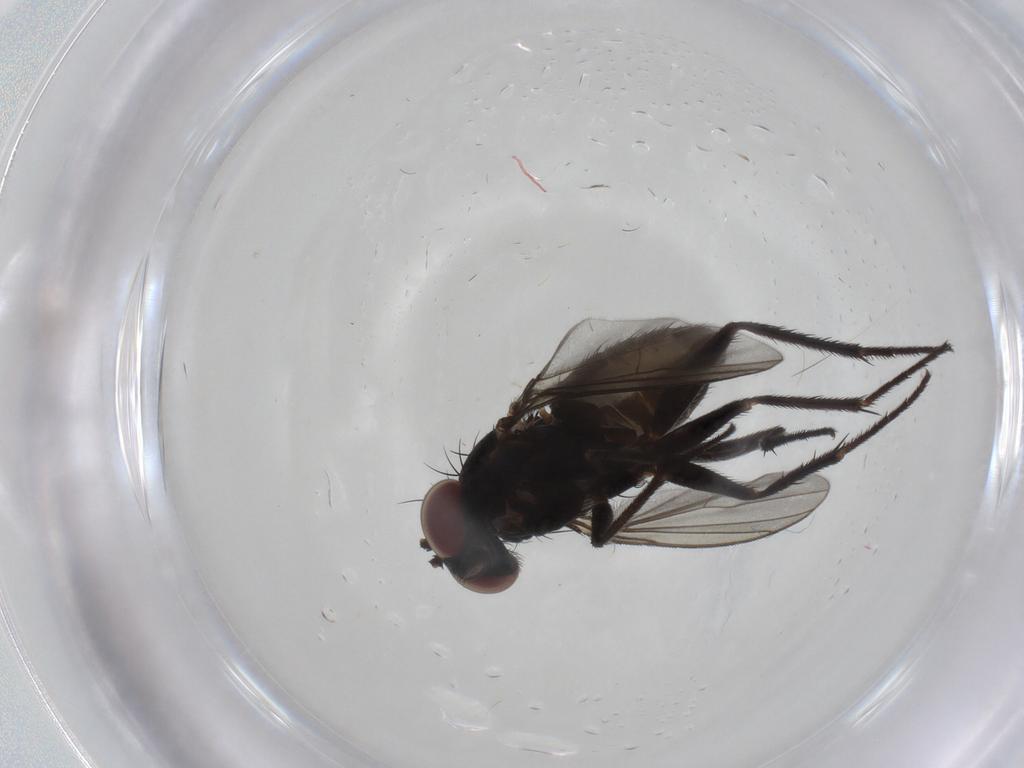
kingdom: Animalia
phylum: Arthropoda
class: Insecta
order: Diptera
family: Dolichopodidae
